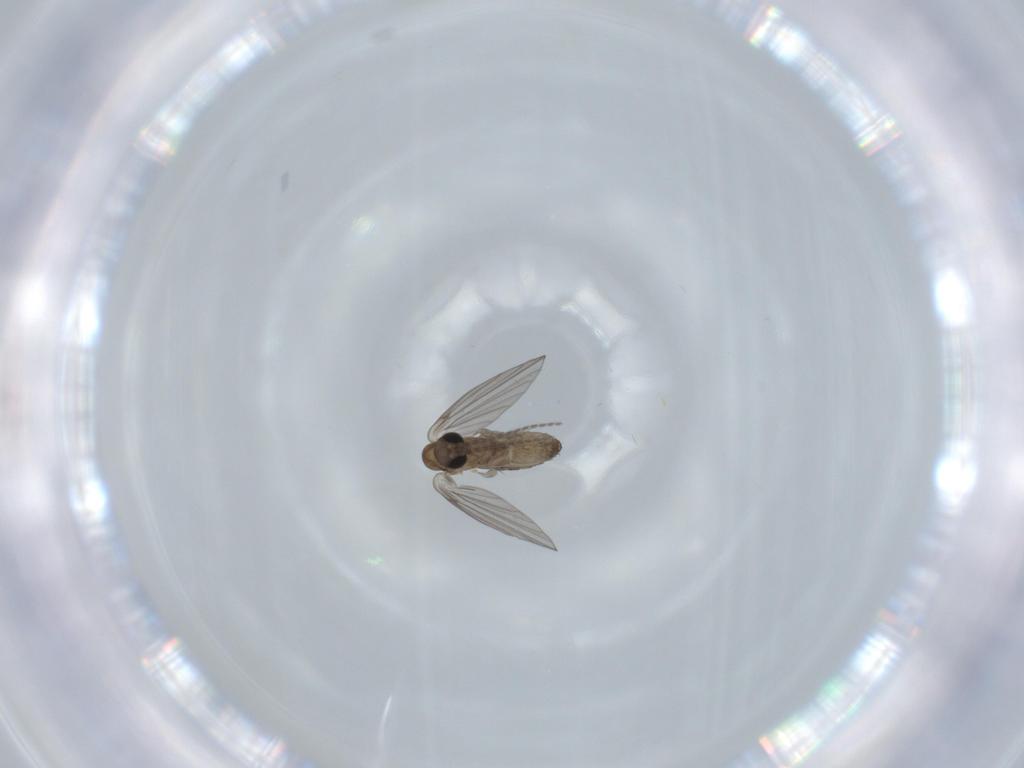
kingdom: Animalia
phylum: Arthropoda
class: Insecta
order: Diptera
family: Psychodidae
